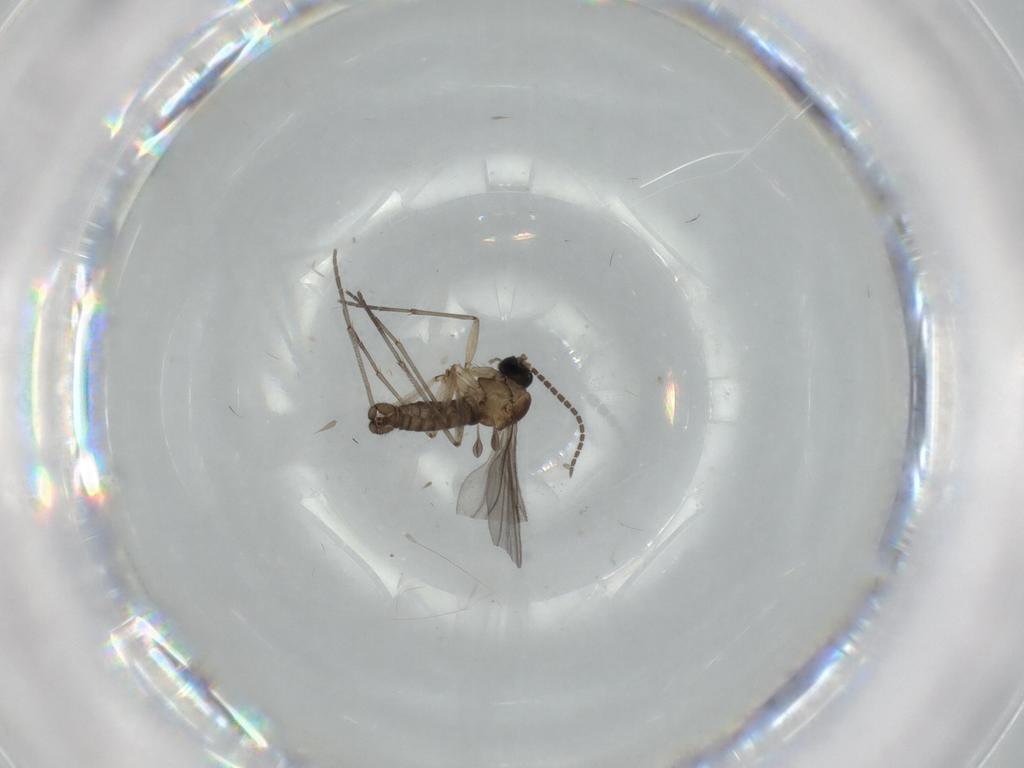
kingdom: Animalia
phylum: Arthropoda
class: Insecta
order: Diptera
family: Sciaridae
